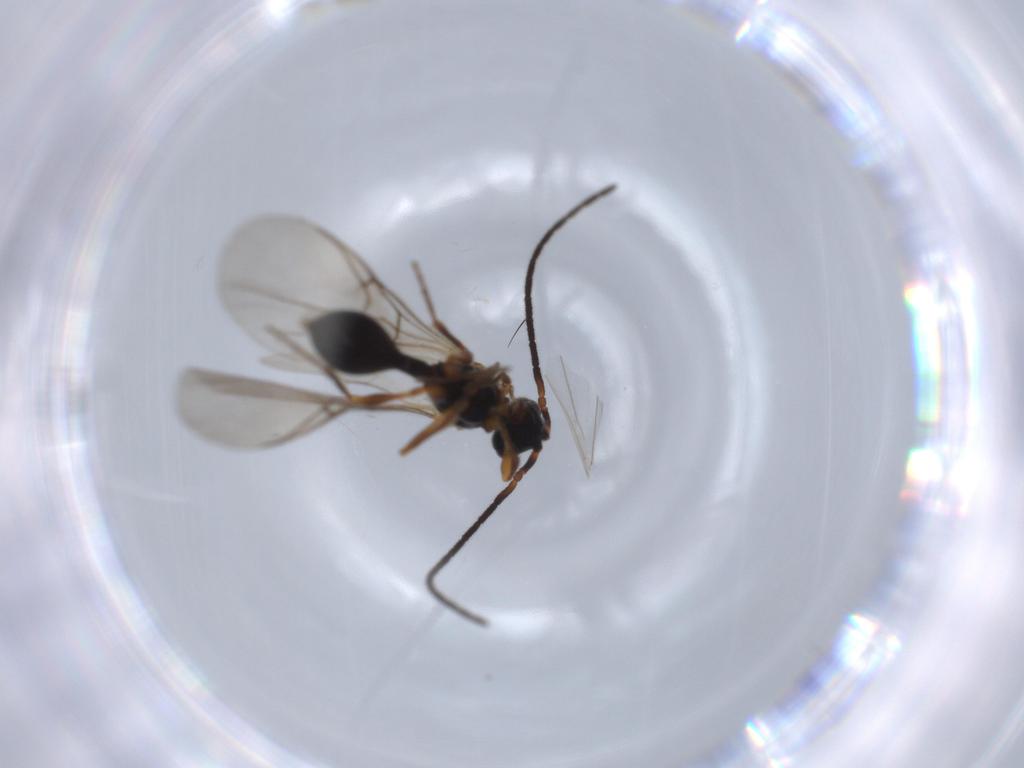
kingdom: Animalia
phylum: Arthropoda
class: Insecta
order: Hymenoptera
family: Diapriidae
